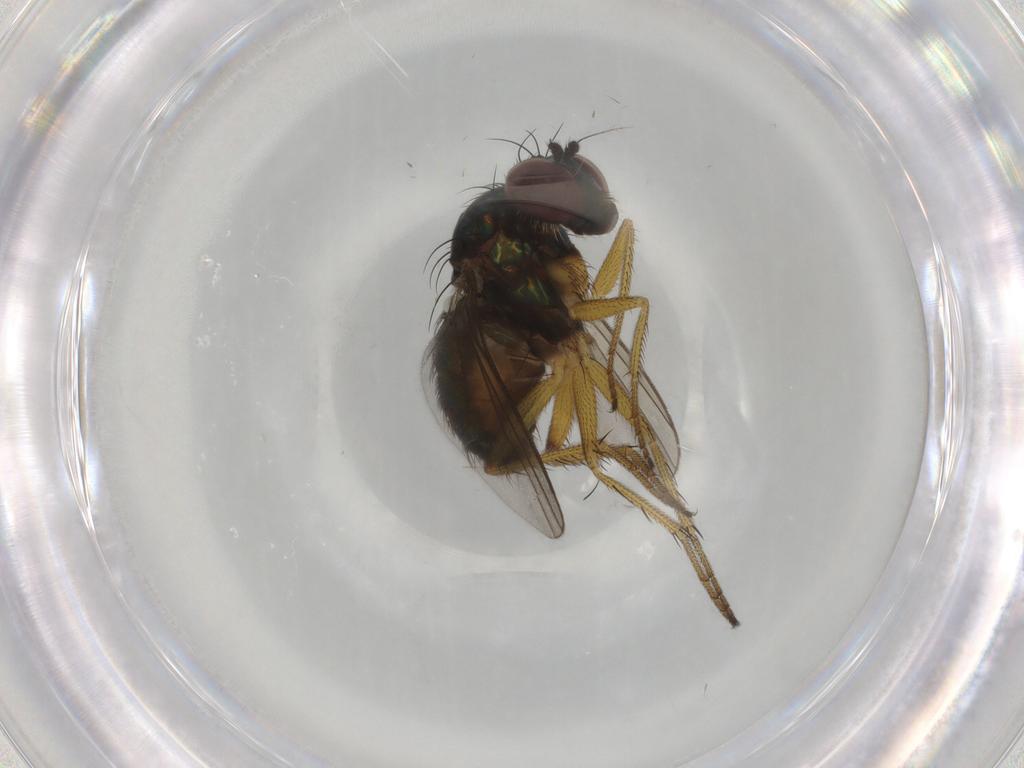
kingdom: Animalia
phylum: Arthropoda
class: Insecta
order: Diptera
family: Dolichopodidae
